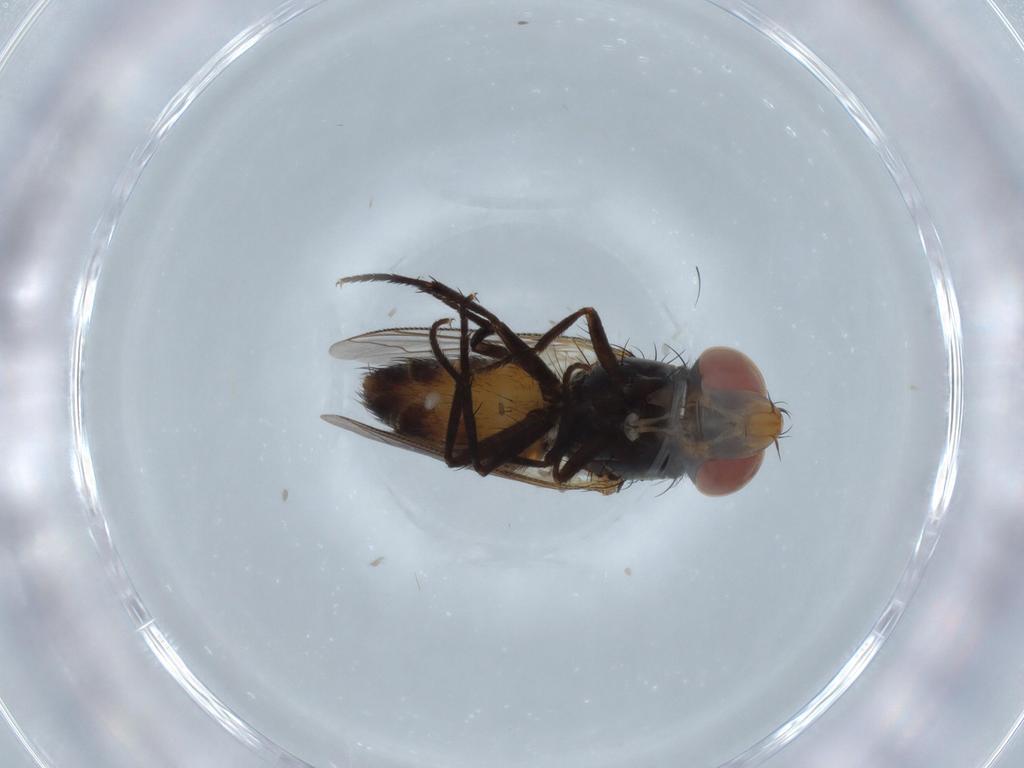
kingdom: Animalia
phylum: Arthropoda
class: Insecta
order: Diptera
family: Sarcophagidae
